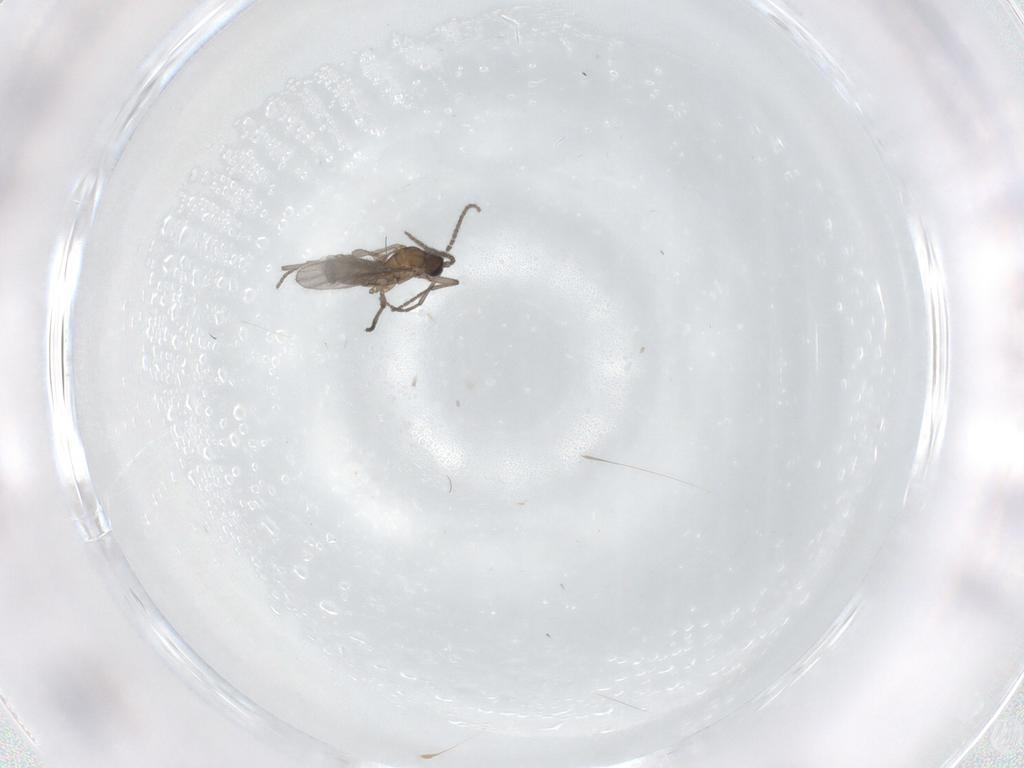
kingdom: Animalia
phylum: Arthropoda
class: Insecta
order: Diptera
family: Sciaridae
